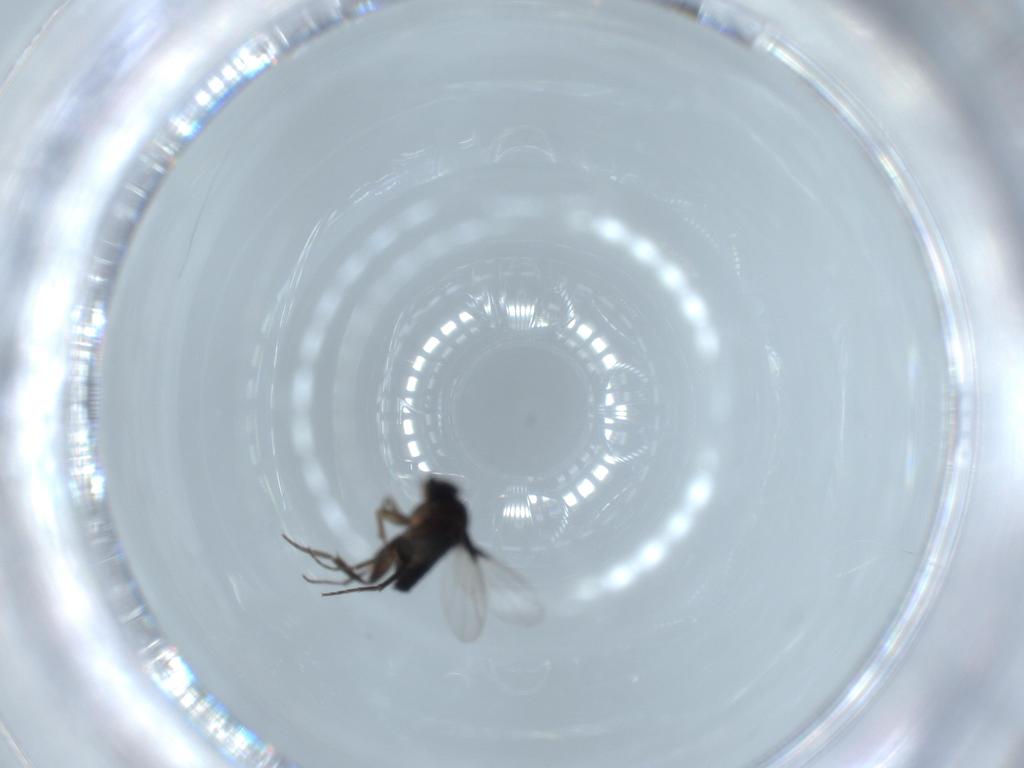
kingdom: Animalia
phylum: Arthropoda
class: Insecta
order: Diptera
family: Phoridae
